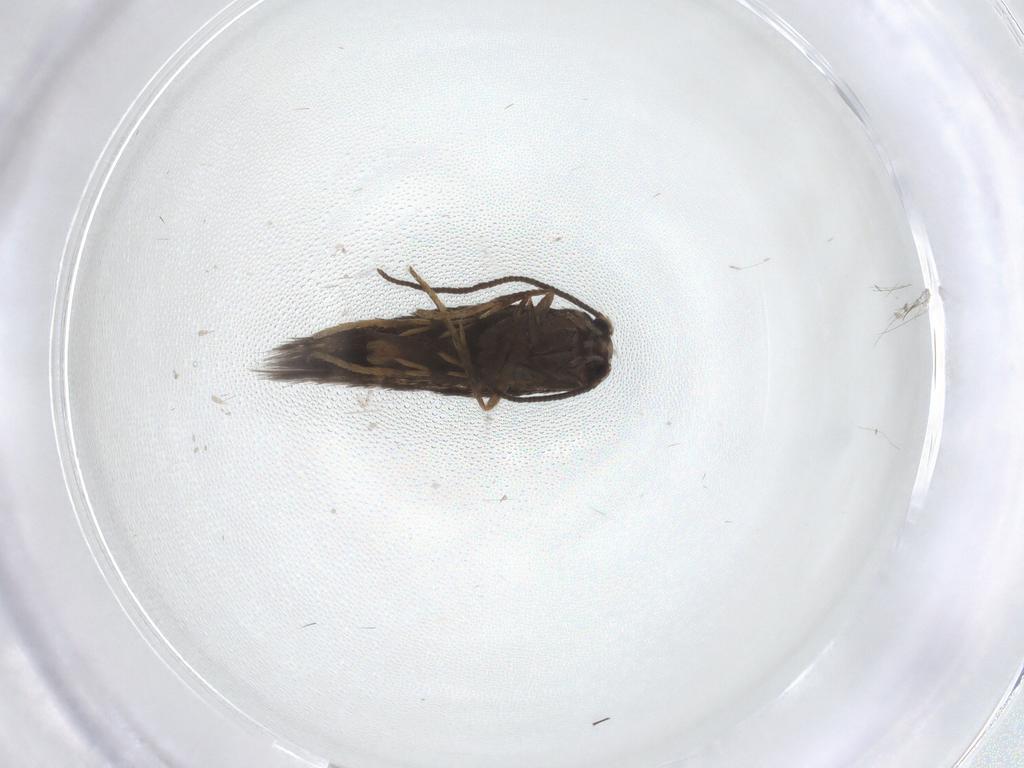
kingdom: Animalia
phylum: Arthropoda
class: Insecta
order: Lepidoptera
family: Nepticulidae
